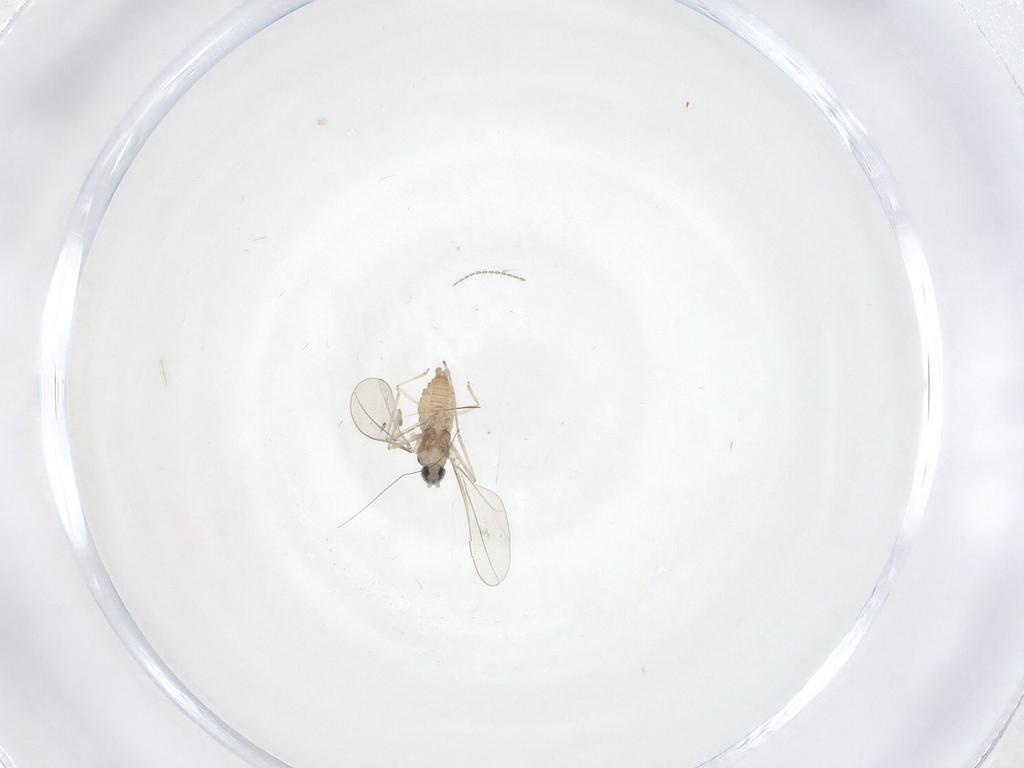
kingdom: Animalia
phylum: Arthropoda
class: Insecta
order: Diptera
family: Cecidomyiidae
